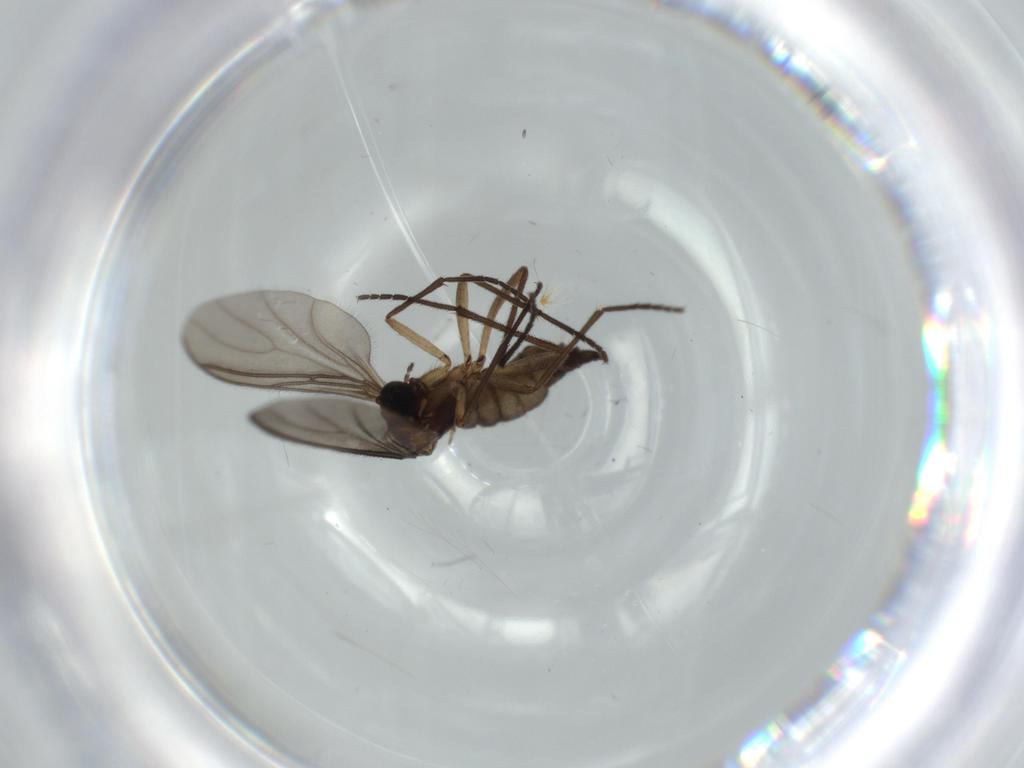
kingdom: Animalia
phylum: Arthropoda
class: Insecta
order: Diptera
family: Sciaridae
